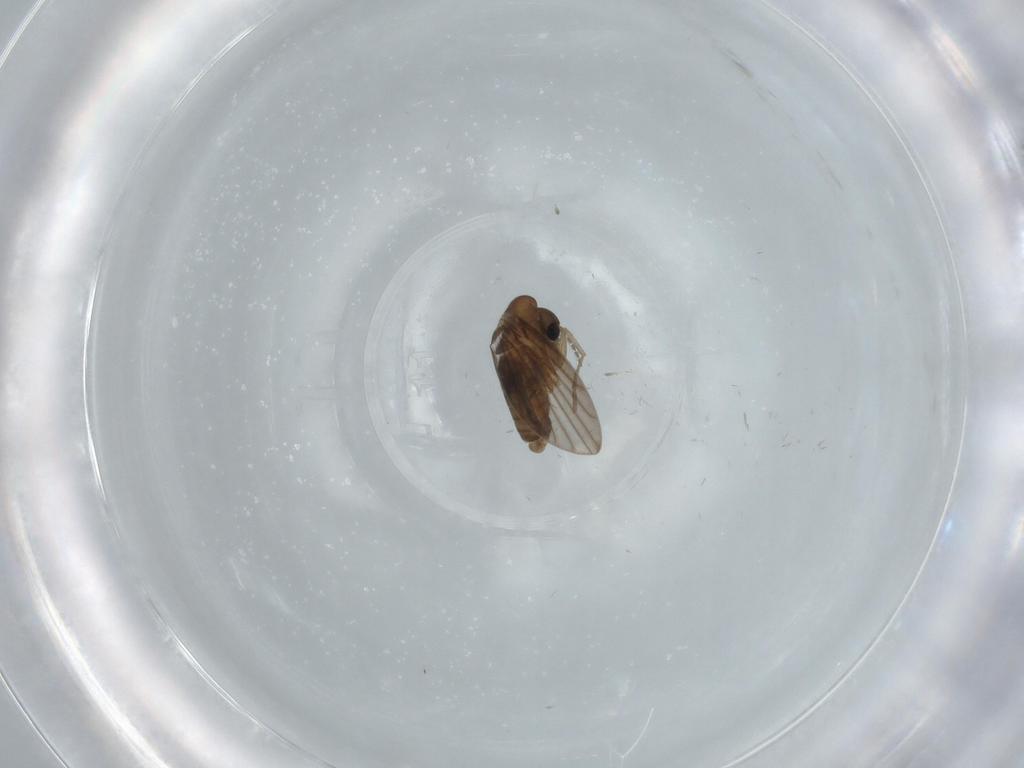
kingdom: Animalia
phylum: Arthropoda
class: Insecta
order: Diptera
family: Psychodidae
